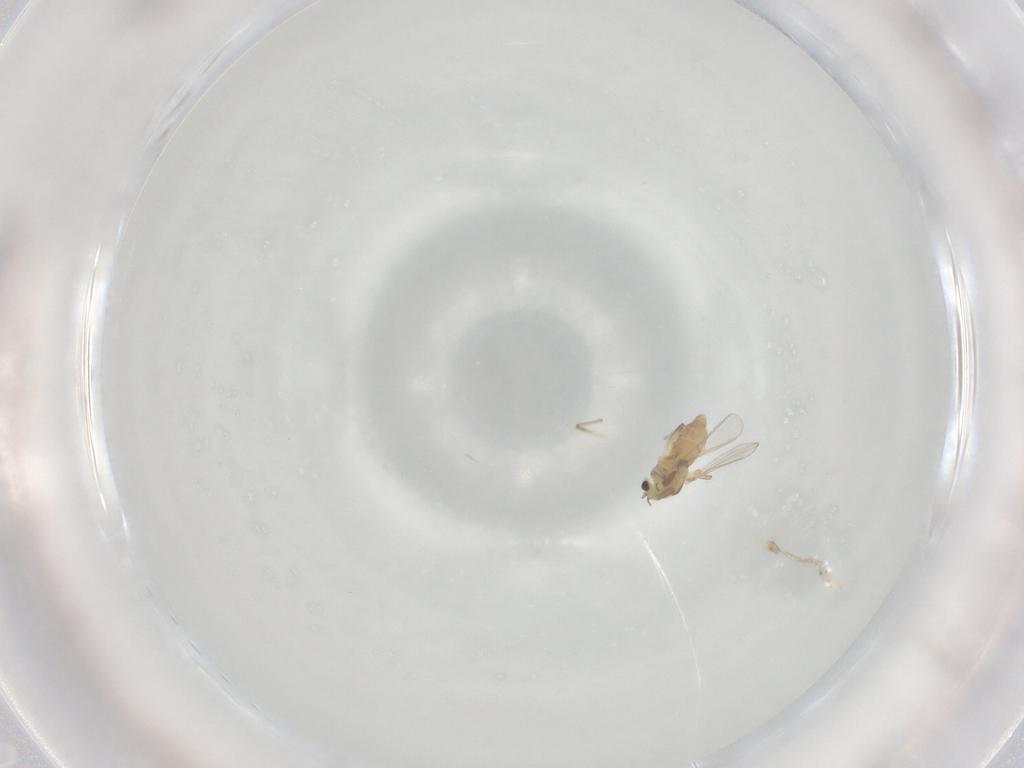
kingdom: Animalia
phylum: Arthropoda
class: Insecta
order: Diptera
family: Chironomidae
